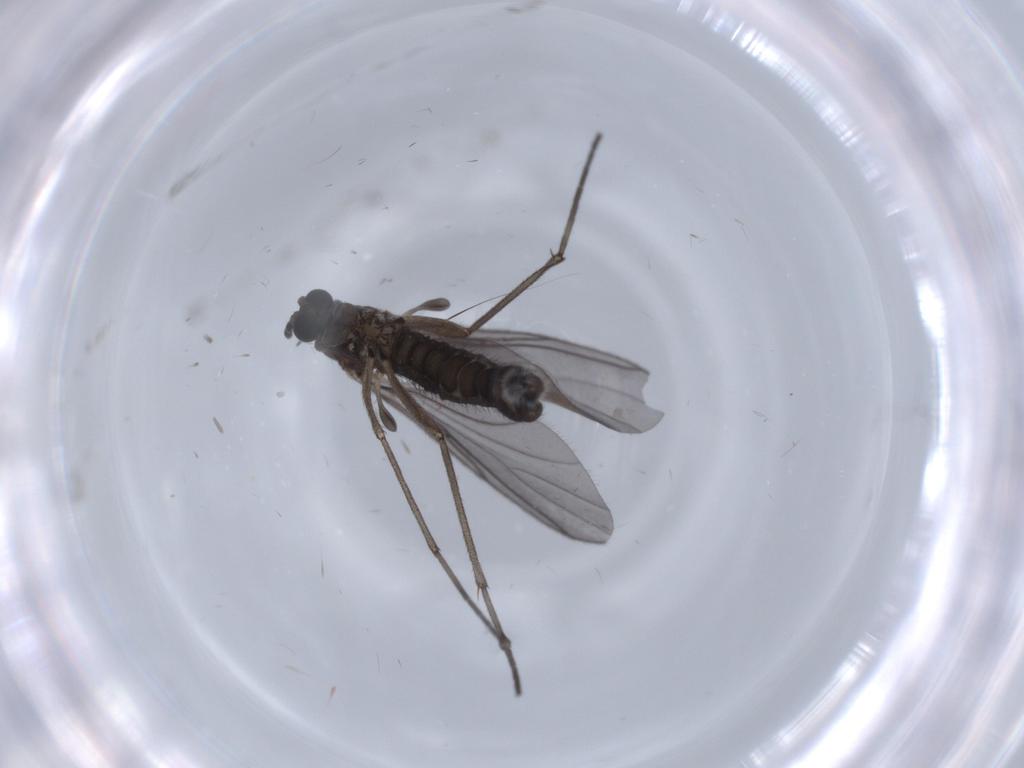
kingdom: Animalia
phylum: Arthropoda
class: Insecta
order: Diptera
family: Sciaridae
